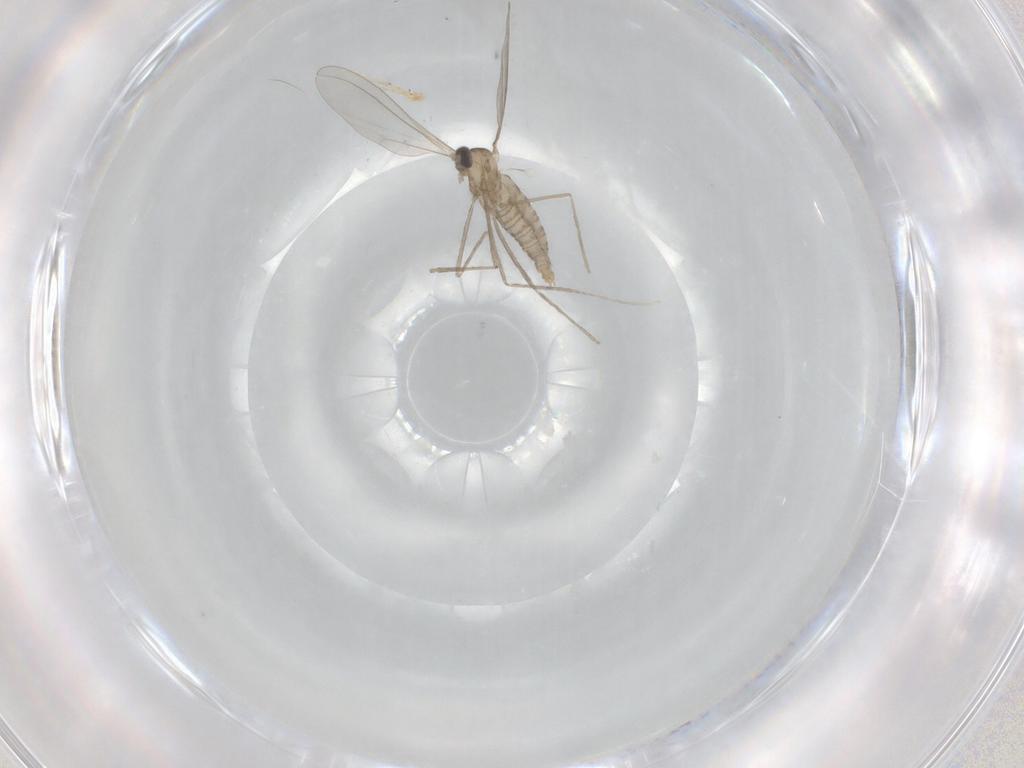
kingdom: Animalia
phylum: Arthropoda
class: Insecta
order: Diptera
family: Cecidomyiidae
